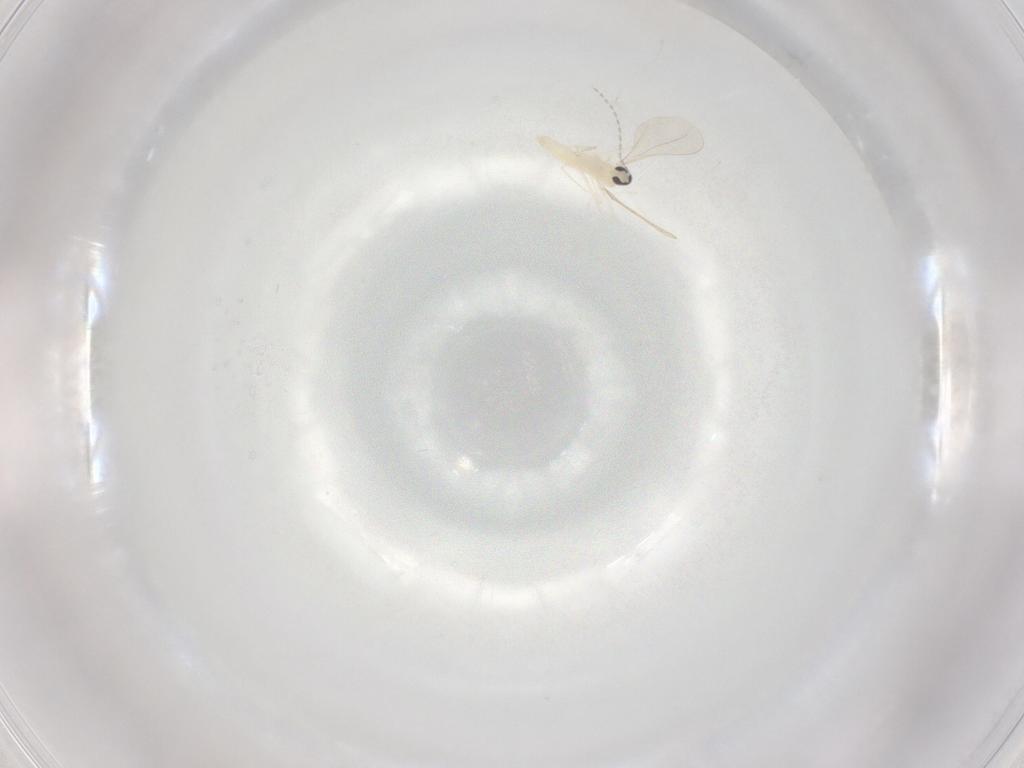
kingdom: Animalia
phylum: Arthropoda
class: Insecta
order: Diptera
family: Cecidomyiidae
